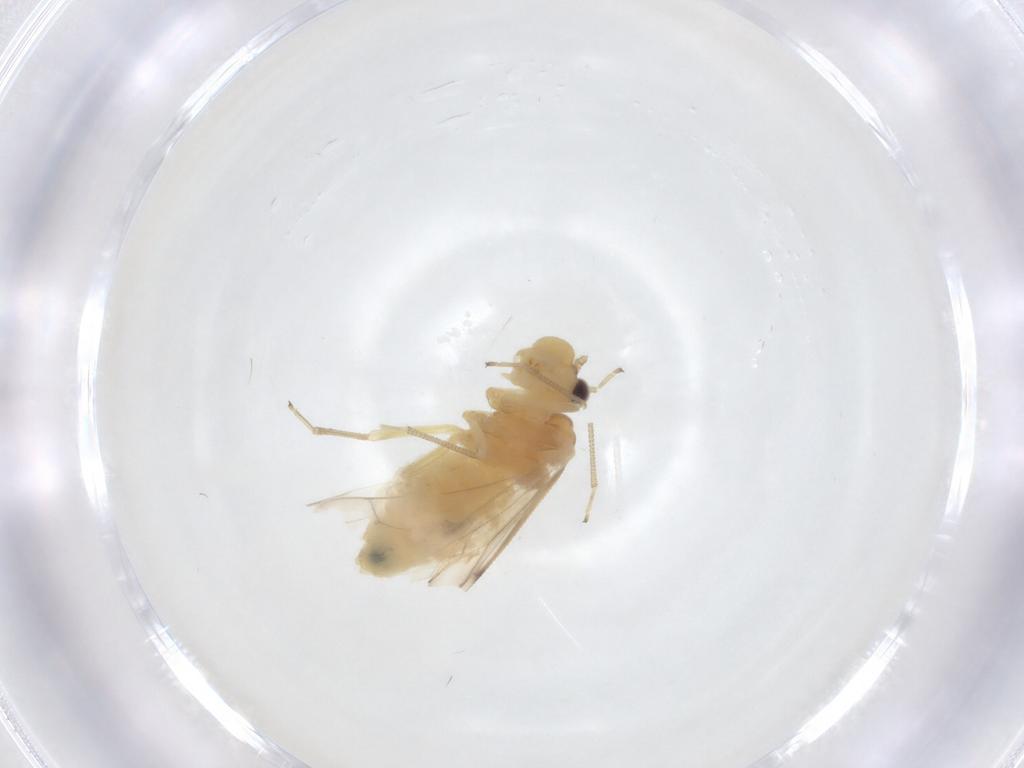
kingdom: Animalia
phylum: Arthropoda
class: Insecta
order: Psocodea
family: Caeciliusidae
